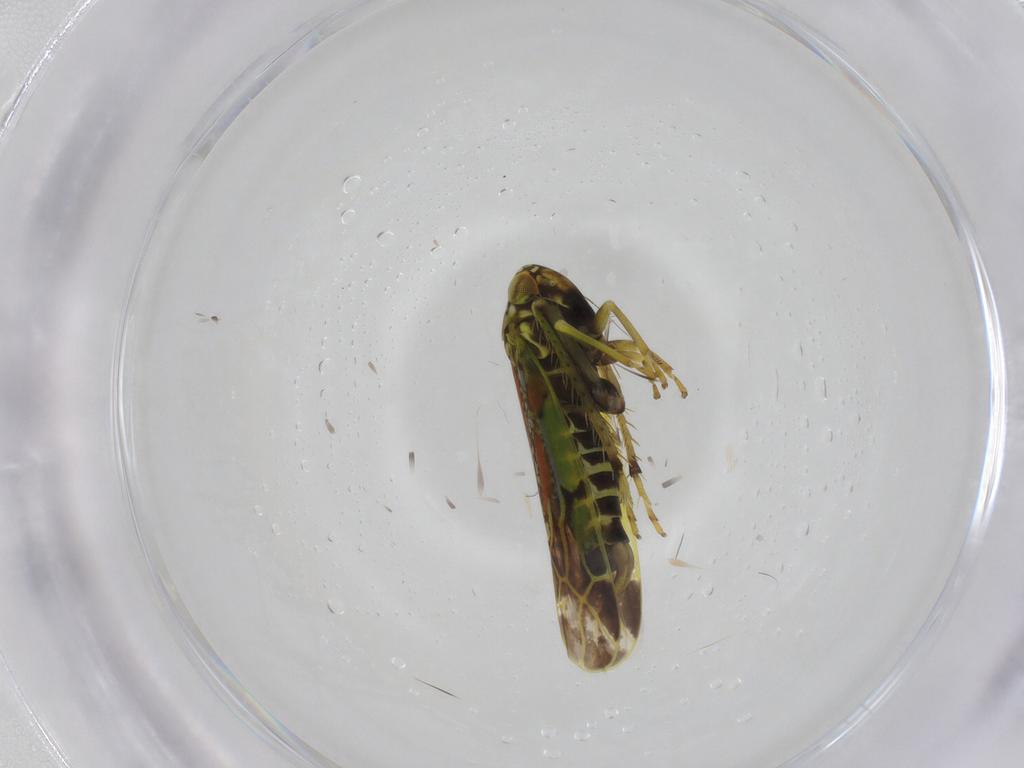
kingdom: Animalia
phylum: Arthropoda
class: Insecta
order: Hemiptera
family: Cicadellidae
